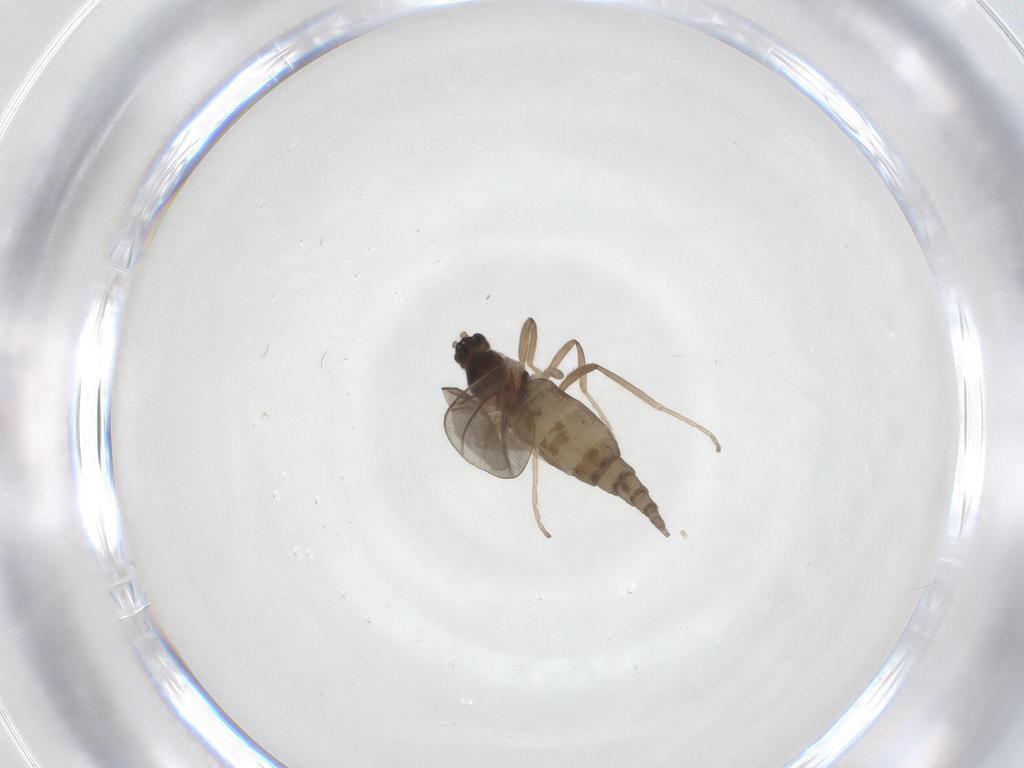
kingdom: Animalia
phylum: Arthropoda
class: Insecta
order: Diptera
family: Cecidomyiidae
